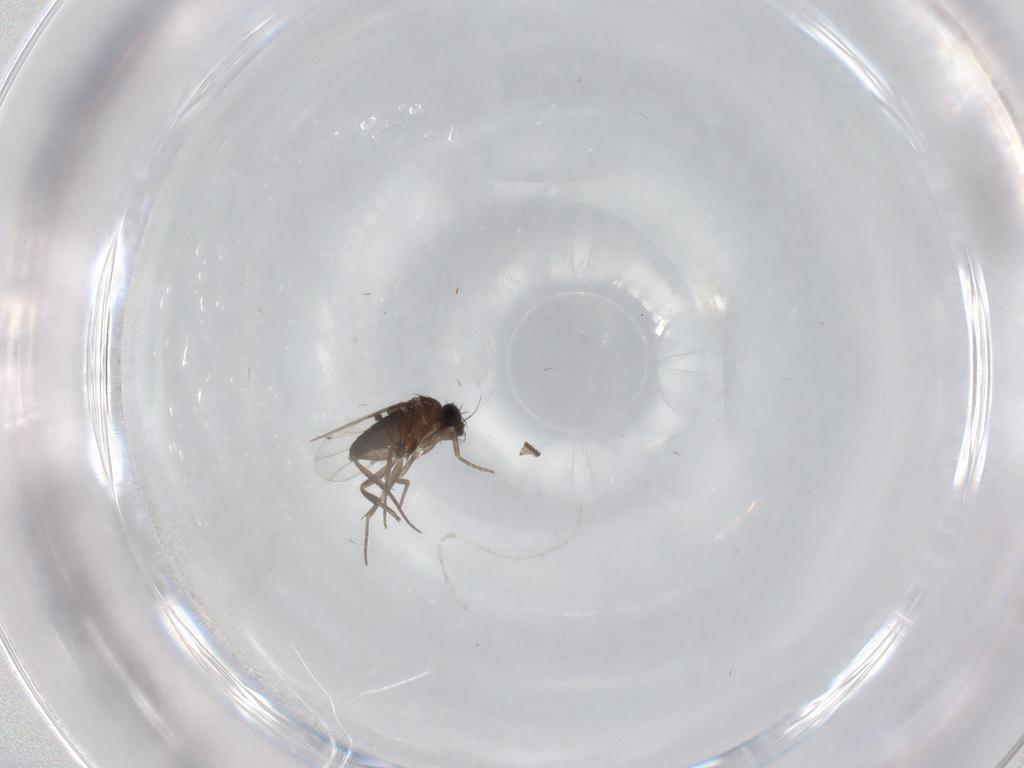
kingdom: Animalia
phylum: Arthropoda
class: Insecta
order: Diptera
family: Phoridae
